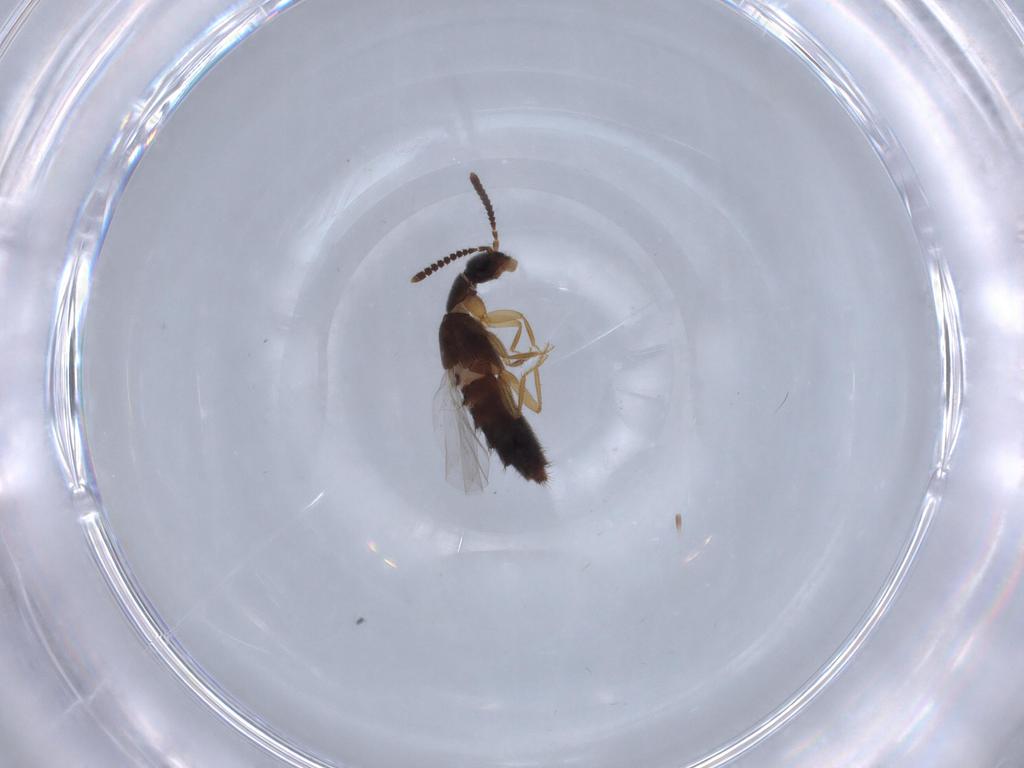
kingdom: Animalia
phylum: Arthropoda
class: Insecta
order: Coleoptera
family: Staphylinidae
